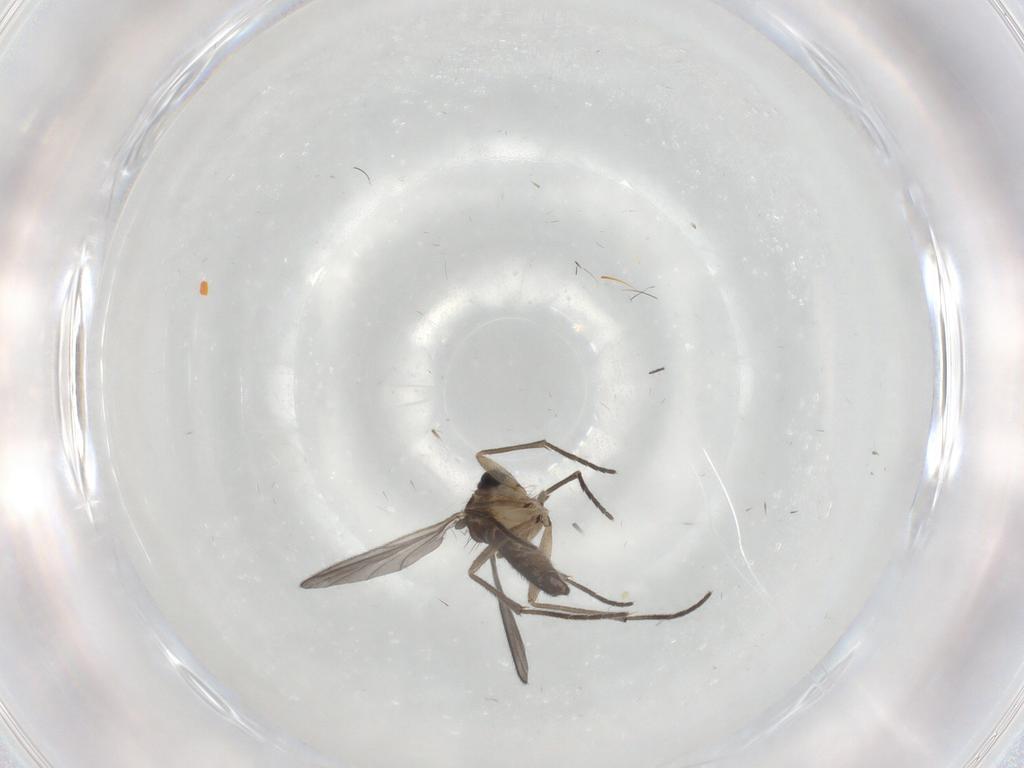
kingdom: Animalia
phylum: Arthropoda
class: Insecta
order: Diptera
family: Sciaridae
